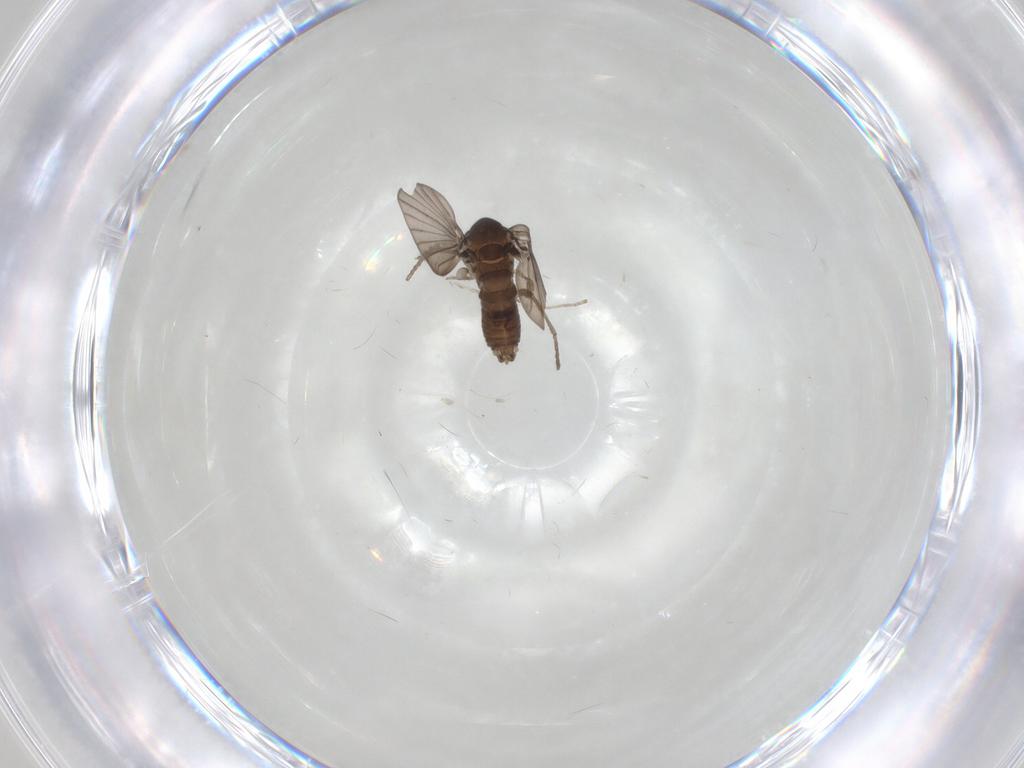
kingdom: Animalia
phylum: Arthropoda
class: Insecta
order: Diptera
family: Psychodidae
